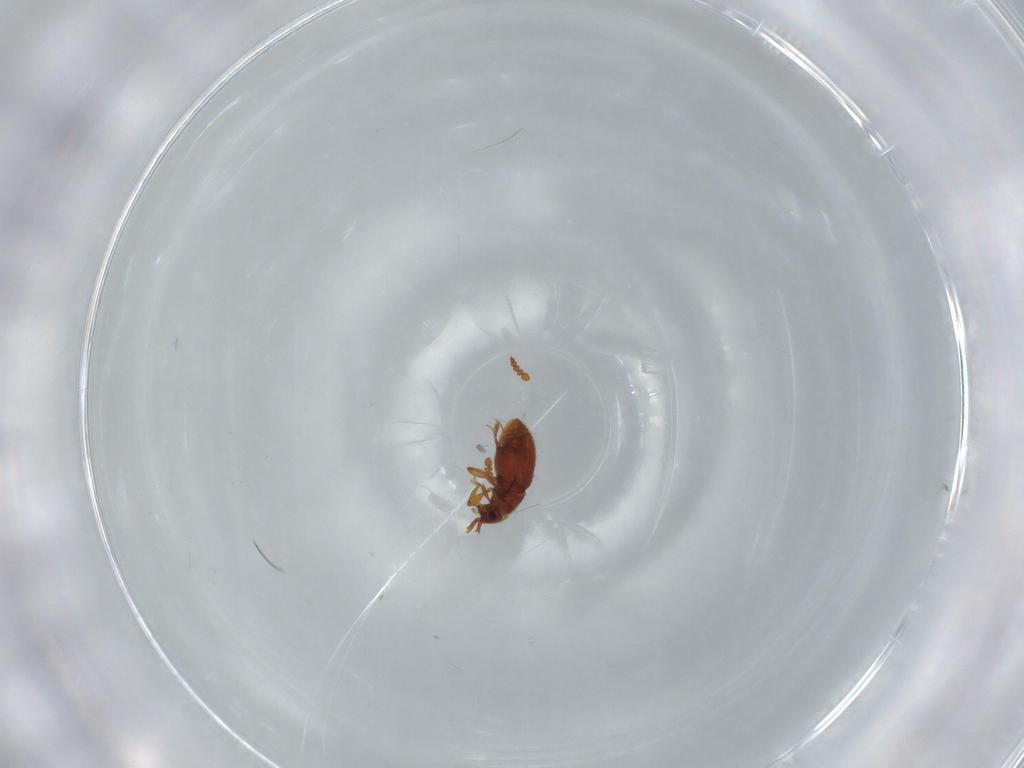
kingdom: Animalia
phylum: Arthropoda
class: Insecta
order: Coleoptera
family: Staphylinidae
